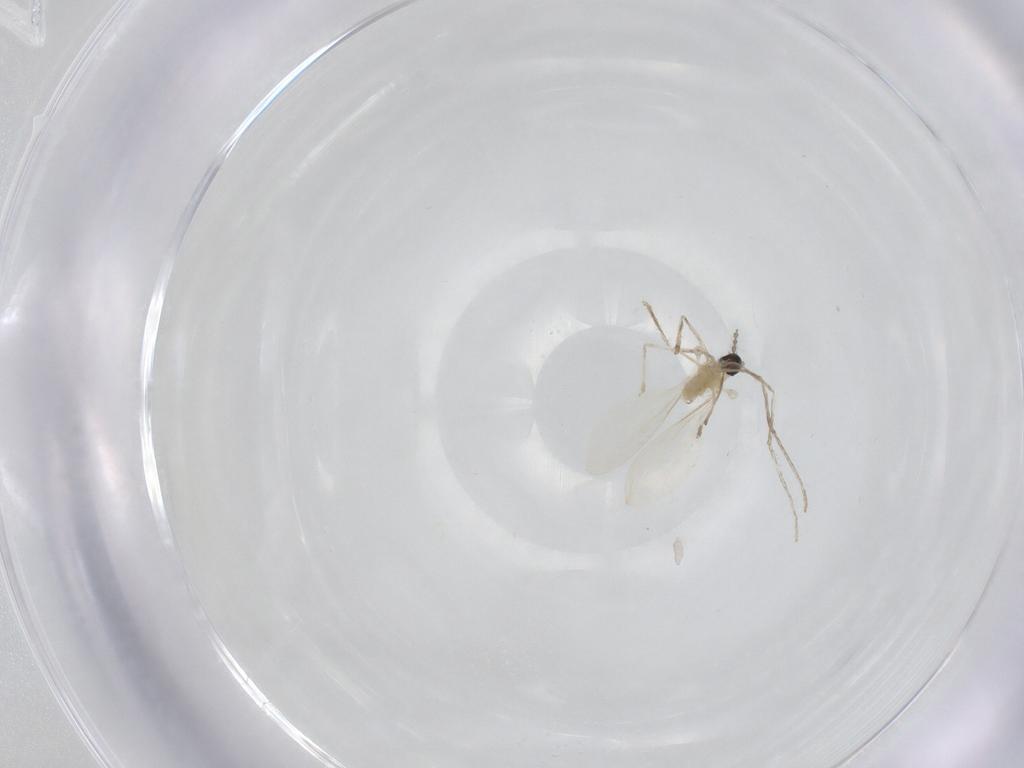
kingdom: Animalia
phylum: Arthropoda
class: Insecta
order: Diptera
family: Cecidomyiidae
